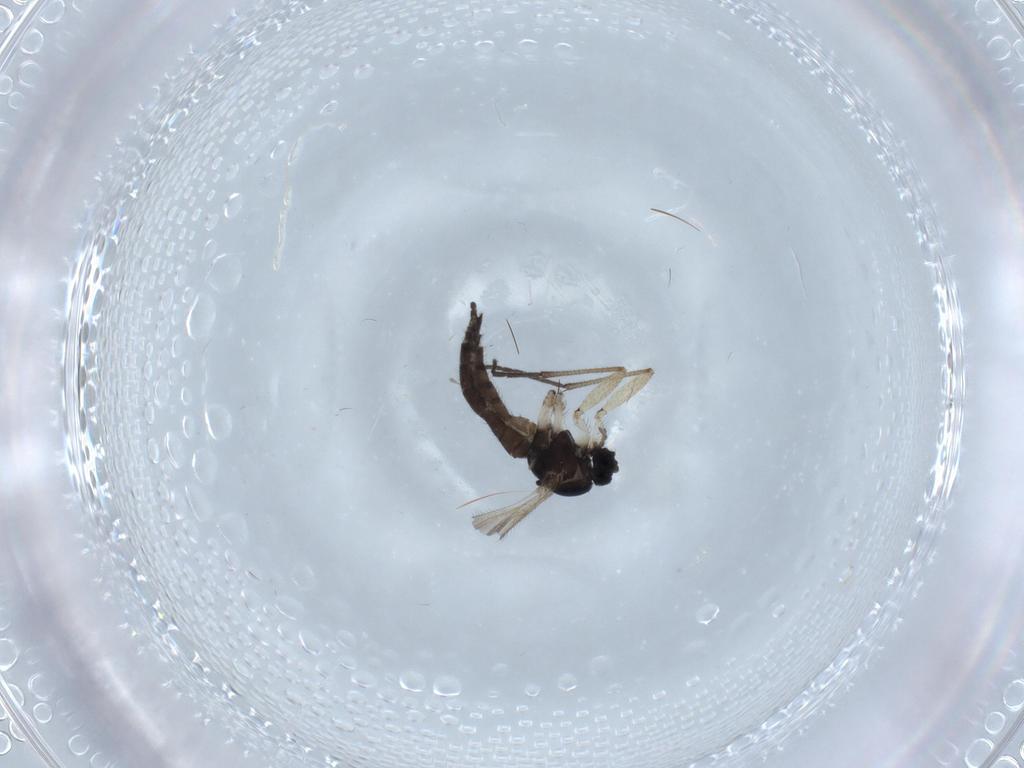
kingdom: Animalia
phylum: Arthropoda
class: Insecta
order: Diptera
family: Sciaridae
